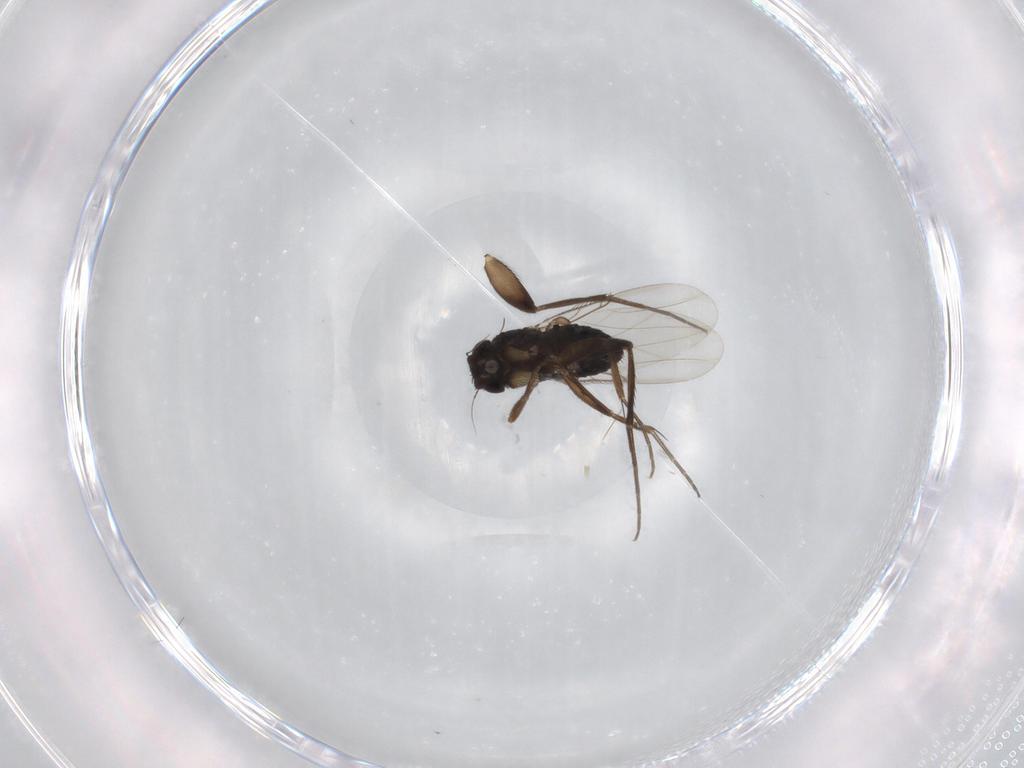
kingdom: Animalia
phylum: Arthropoda
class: Insecta
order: Diptera
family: Phoridae
